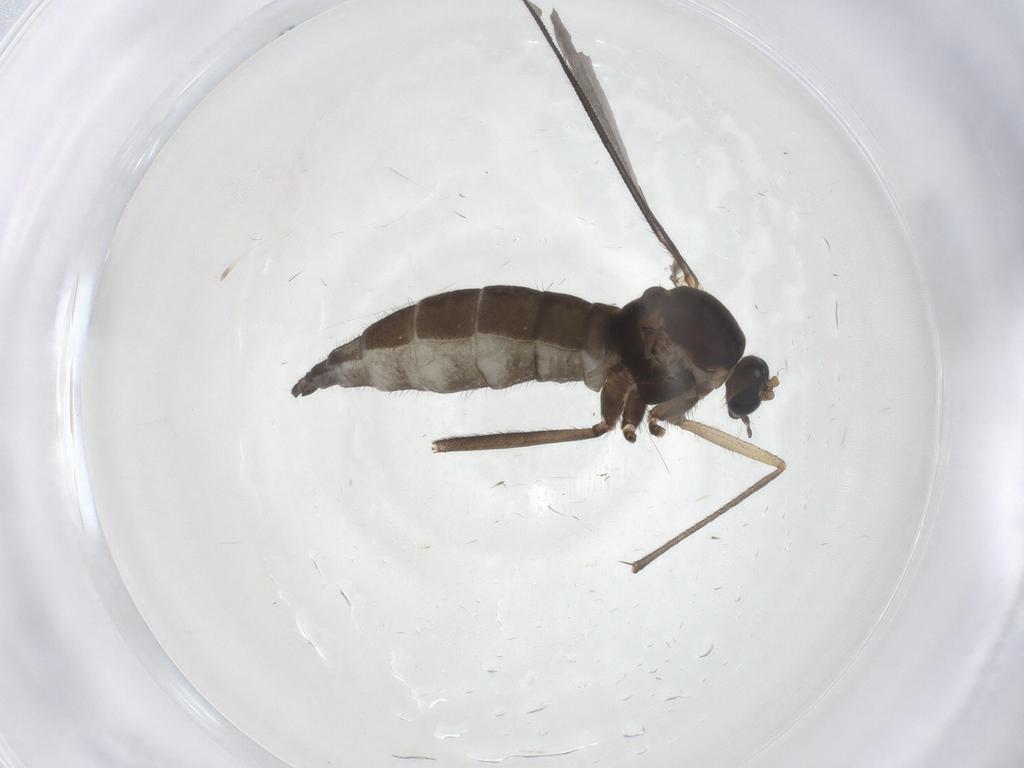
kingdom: Animalia
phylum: Arthropoda
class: Insecta
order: Diptera
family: Sciaridae
